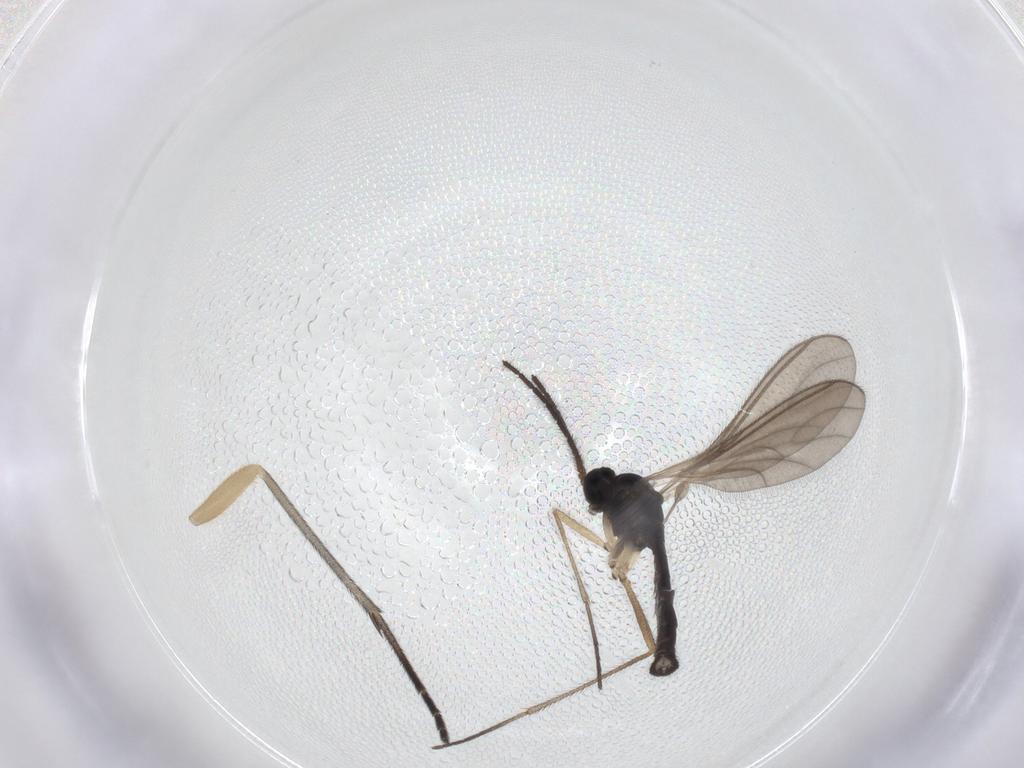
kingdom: Animalia
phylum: Arthropoda
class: Insecta
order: Diptera
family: Sciaridae
